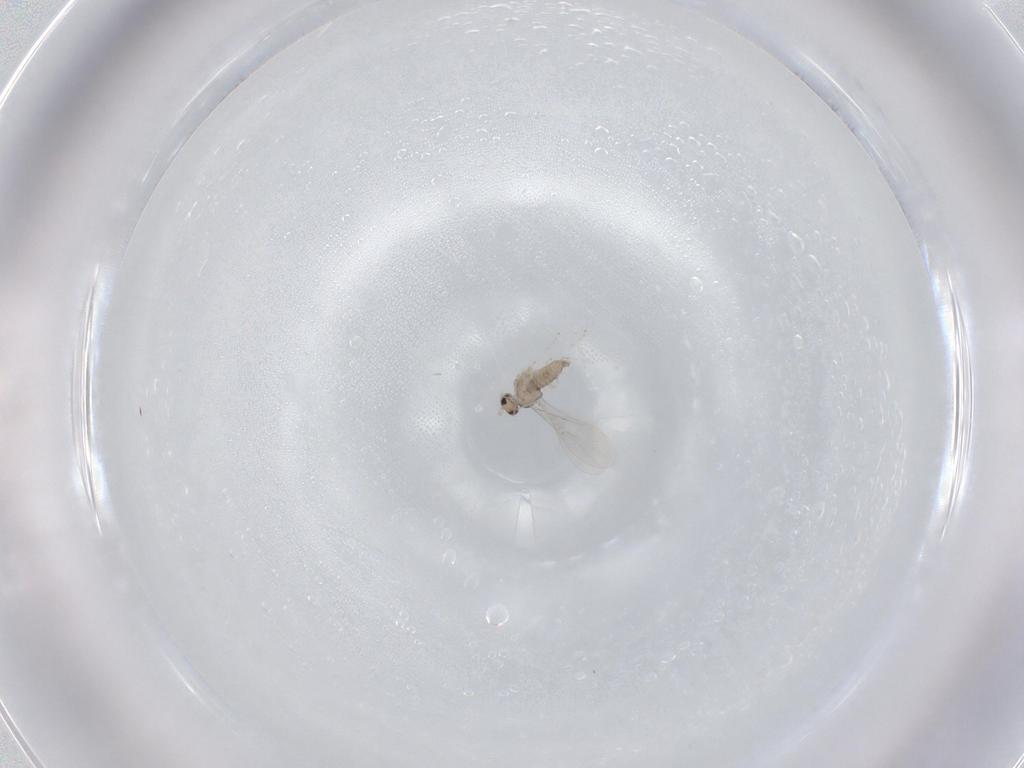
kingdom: Animalia
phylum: Arthropoda
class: Insecta
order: Diptera
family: Cecidomyiidae
